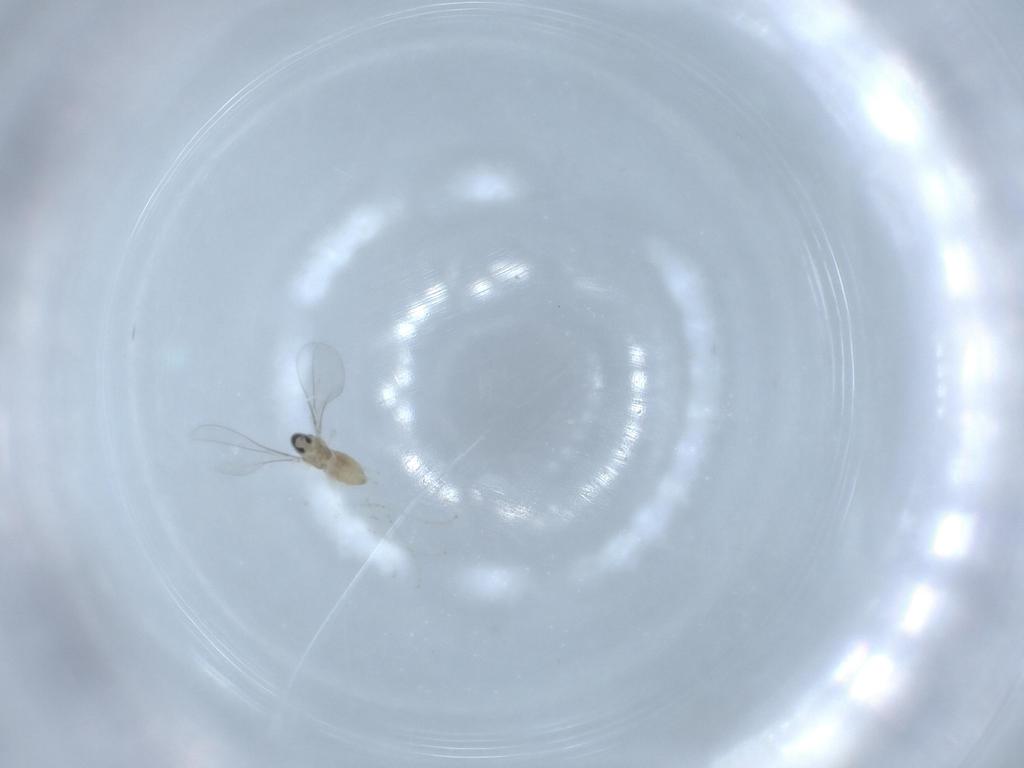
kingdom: Animalia
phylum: Arthropoda
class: Insecta
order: Diptera
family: Cecidomyiidae
